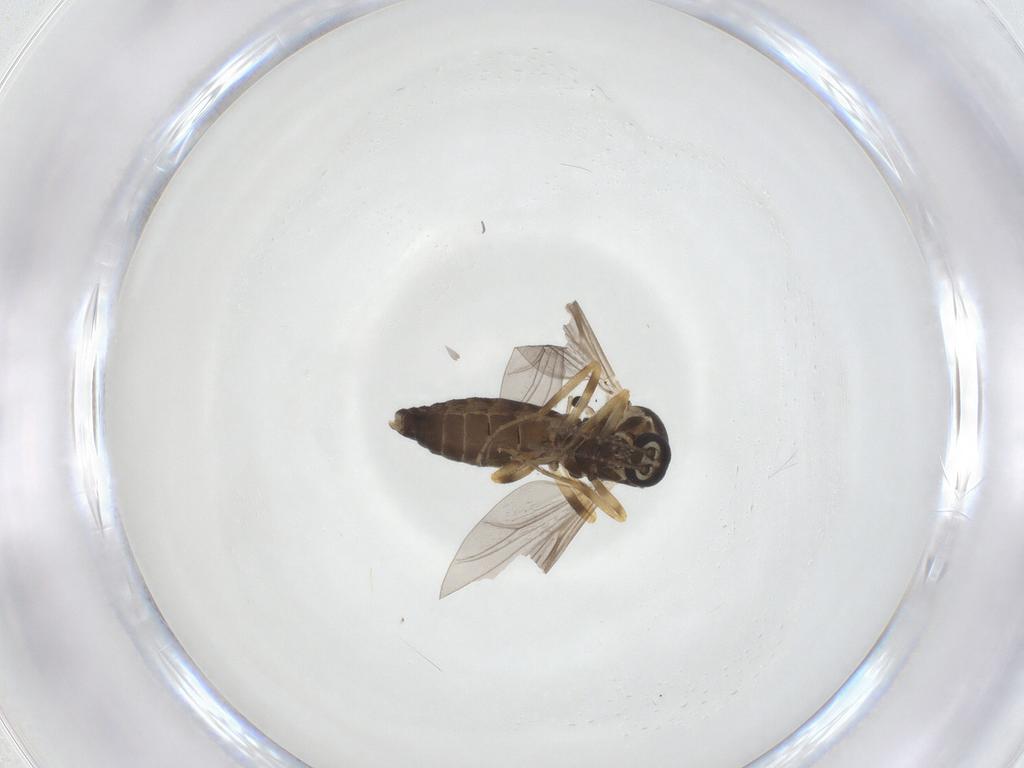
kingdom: Animalia
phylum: Arthropoda
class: Insecta
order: Diptera
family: Ceratopogonidae
